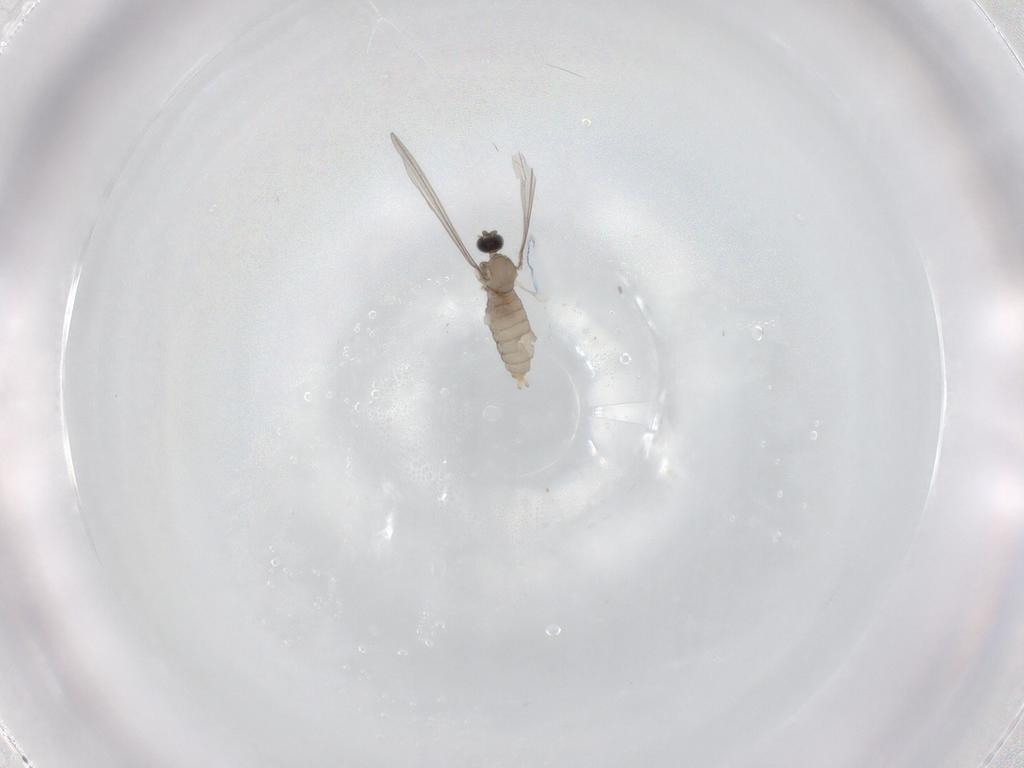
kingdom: Animalia
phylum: Arthropoda
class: Insecta
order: Diptera
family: Cecidomyiidae
